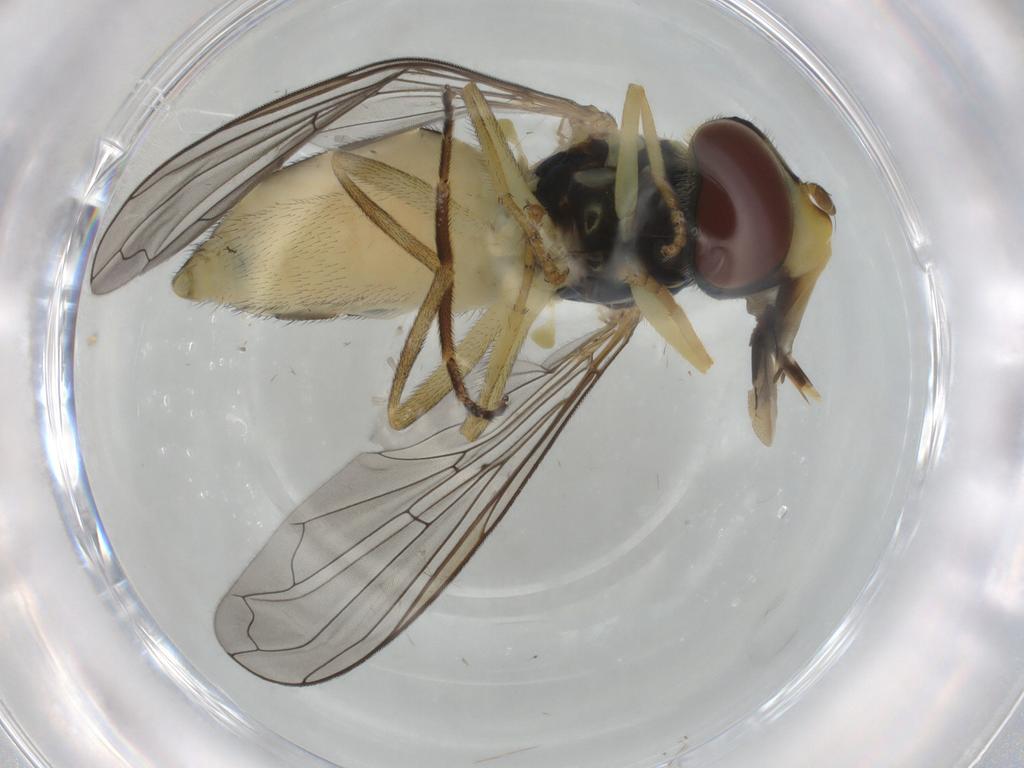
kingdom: Animalia
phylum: Arthropoda
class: Insecta
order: Diptera
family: Syrphidae
